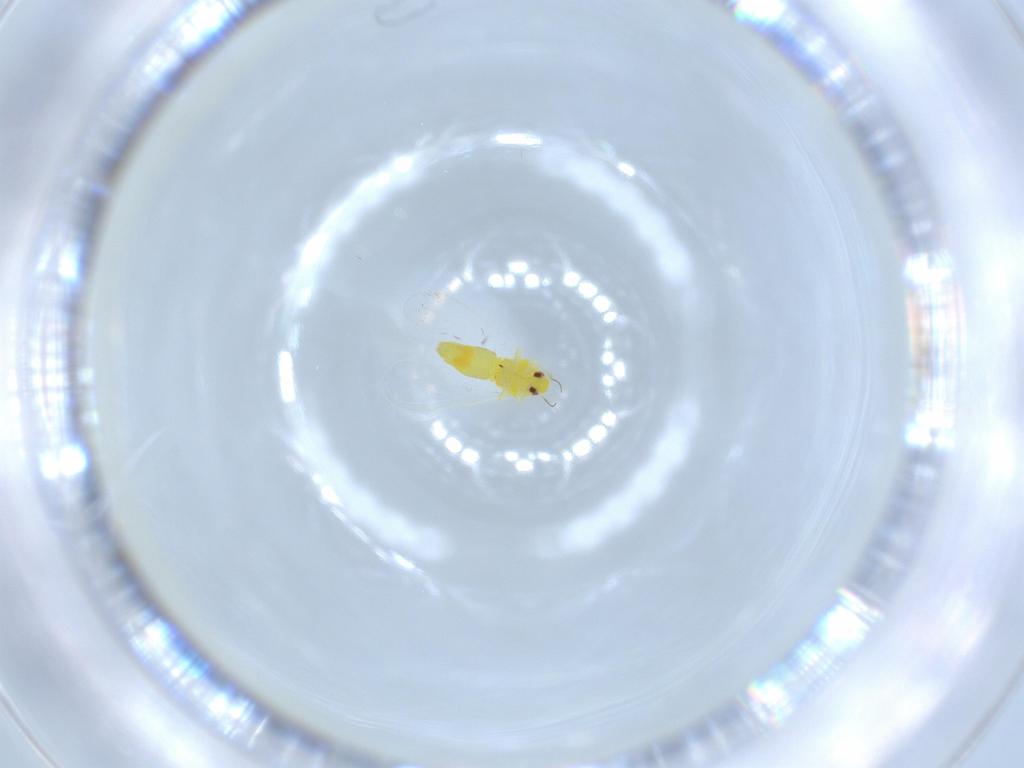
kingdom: Animalia
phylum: Arthropoda
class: Insecta
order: Hemiptera
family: Aleyrodidae
